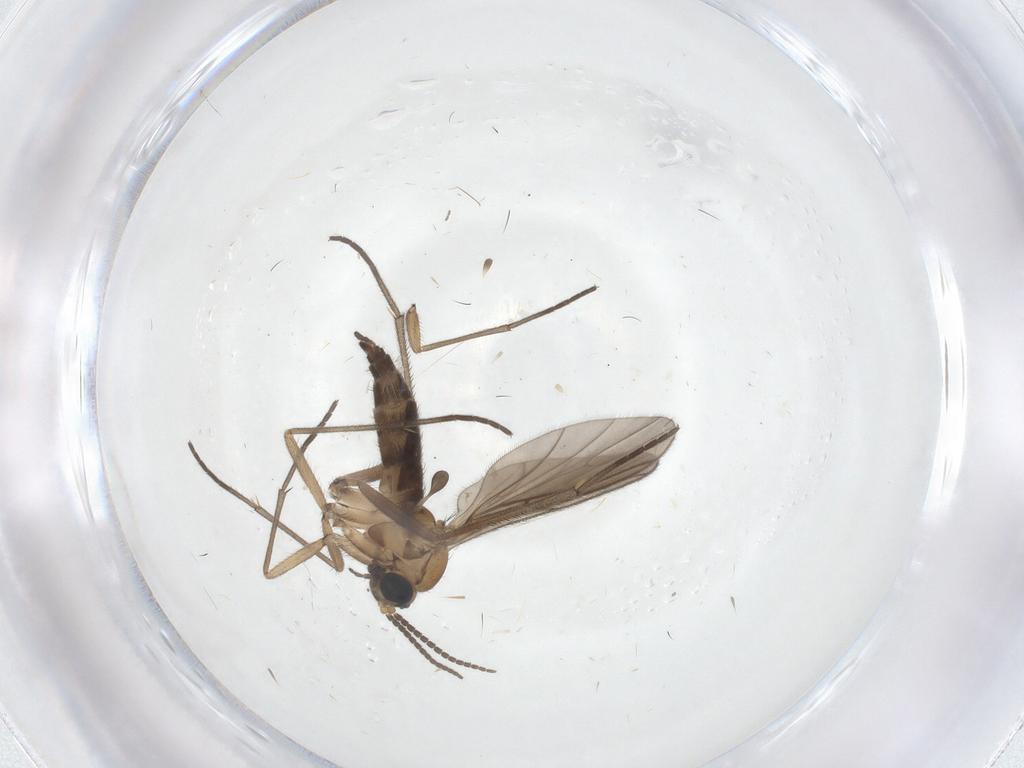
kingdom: Animalia
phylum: Arthropoda
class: Insecta
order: Diptera
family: Sciaridae
